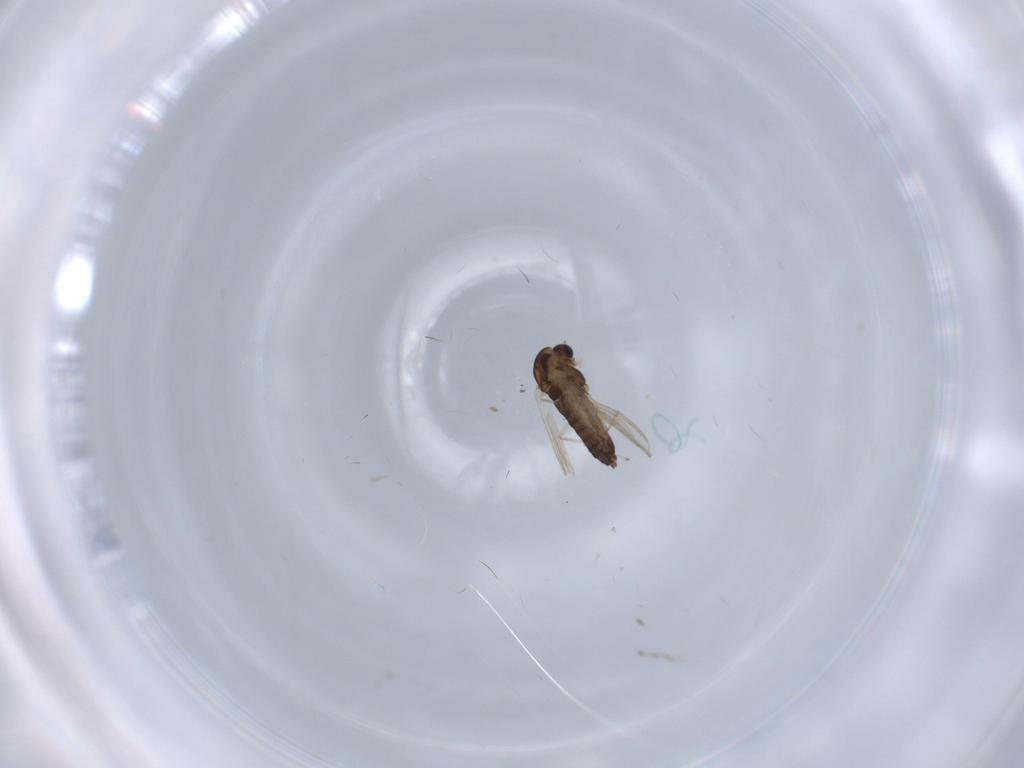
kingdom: Animalia
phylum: Arthropoda
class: Insecta
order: Diptera
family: Chironomidae
